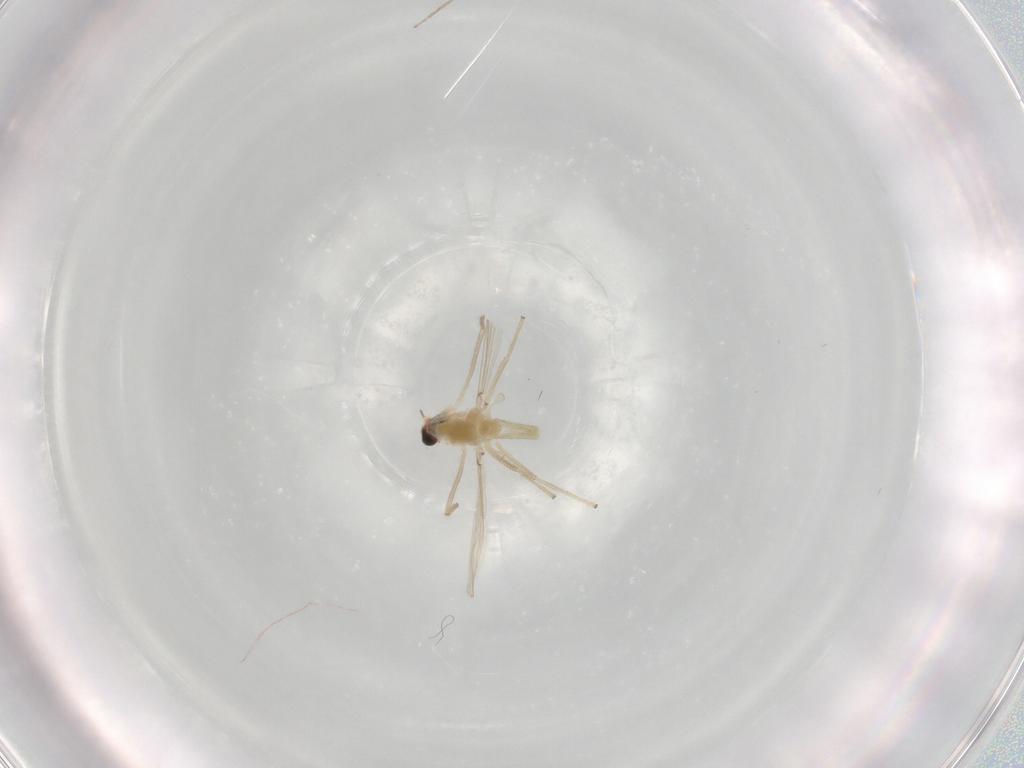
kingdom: Animalia
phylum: Arthropoda
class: Insecta
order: Diptera
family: Chironomidae
